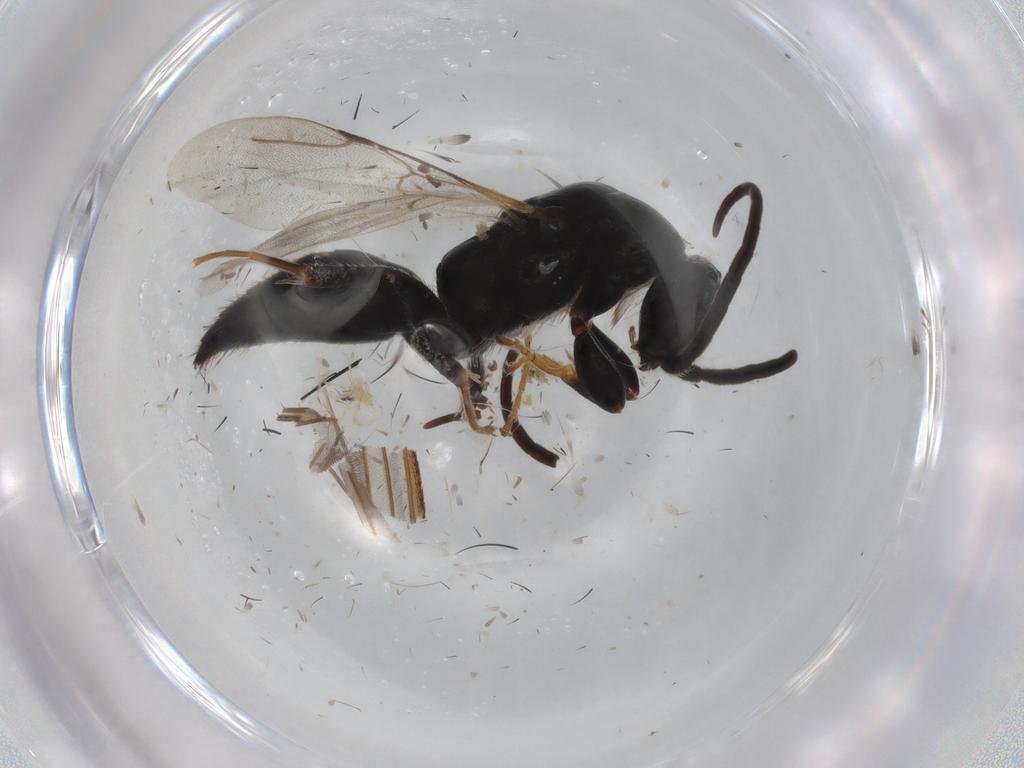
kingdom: Animalia
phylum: Arthropoda
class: Insecta
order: Hymenoptera
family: Bethylidae
